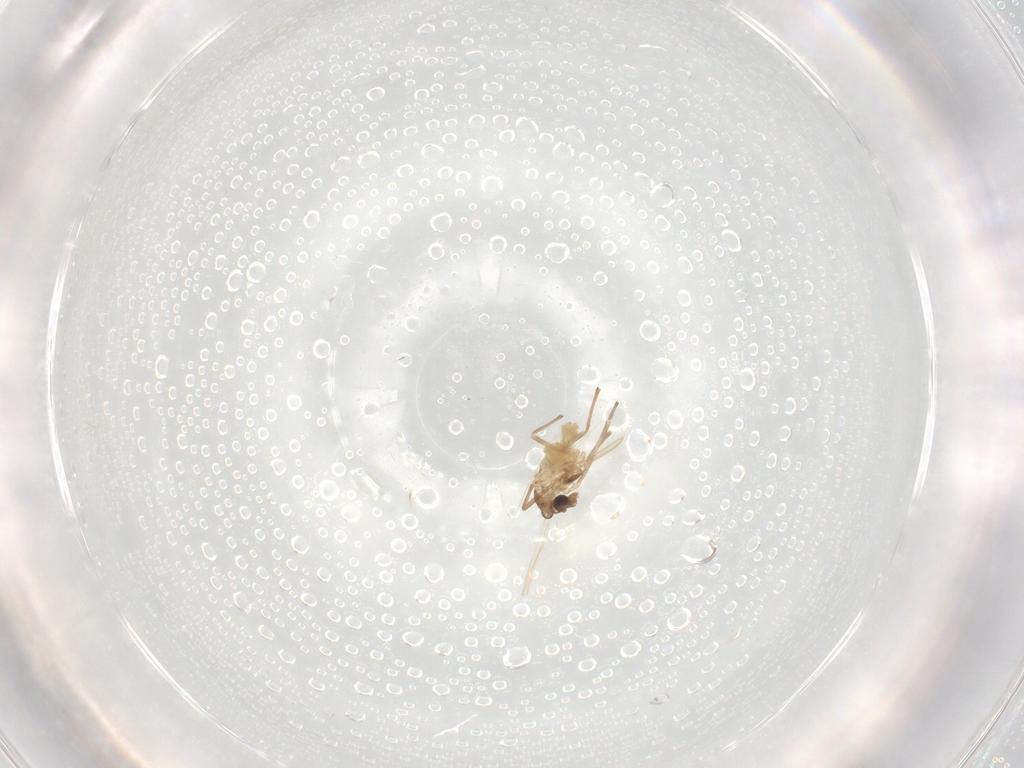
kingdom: Animalia
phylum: Arthropoda
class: Insecta
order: Diptera
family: Chironomidae
